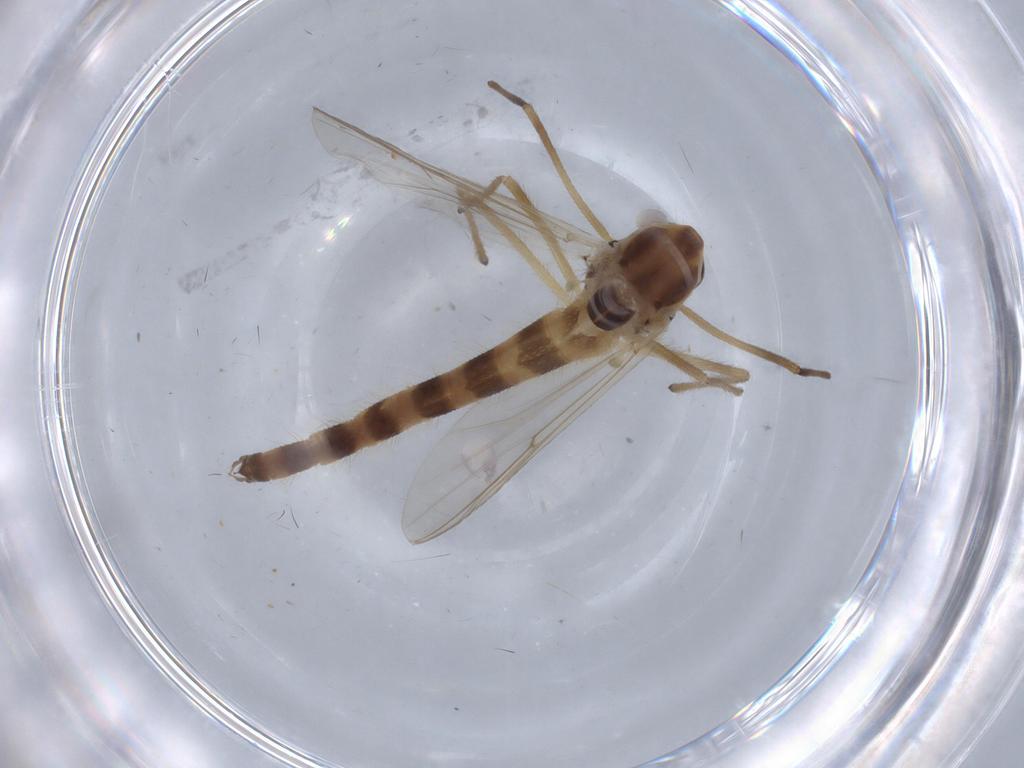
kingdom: Animalia
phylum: Arthropoda
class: Insecta
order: Diptera
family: Chironomidae
